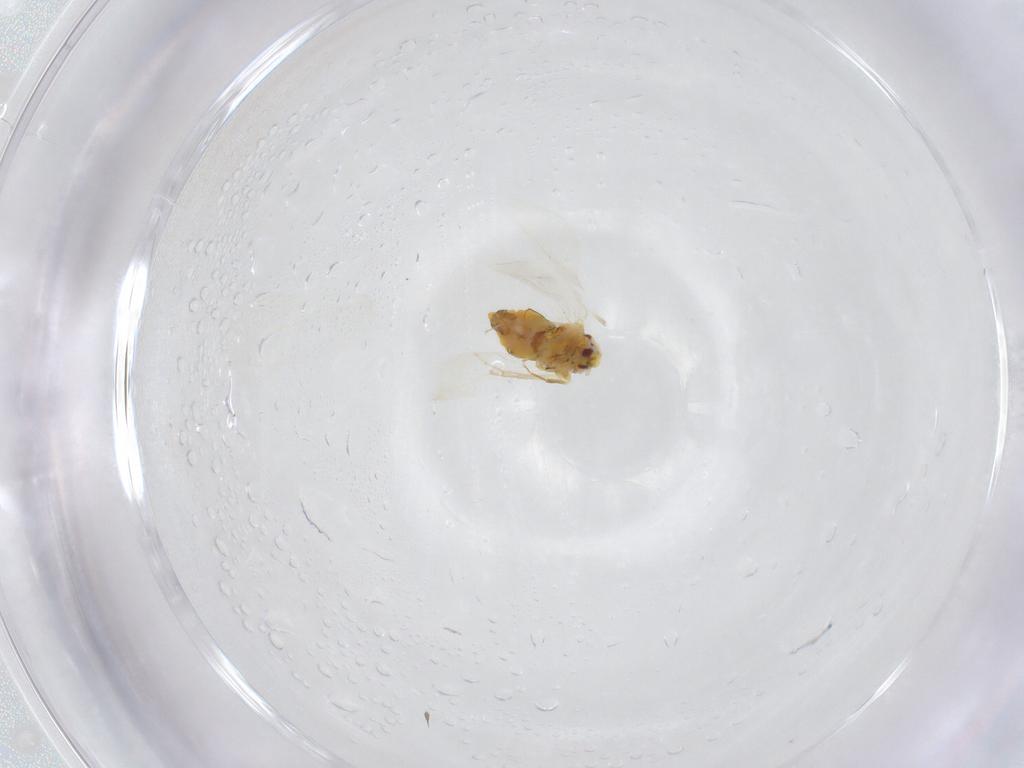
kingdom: Animalia
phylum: Arthropoda
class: Insecta
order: Hemiptera
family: Aleyrodidae
